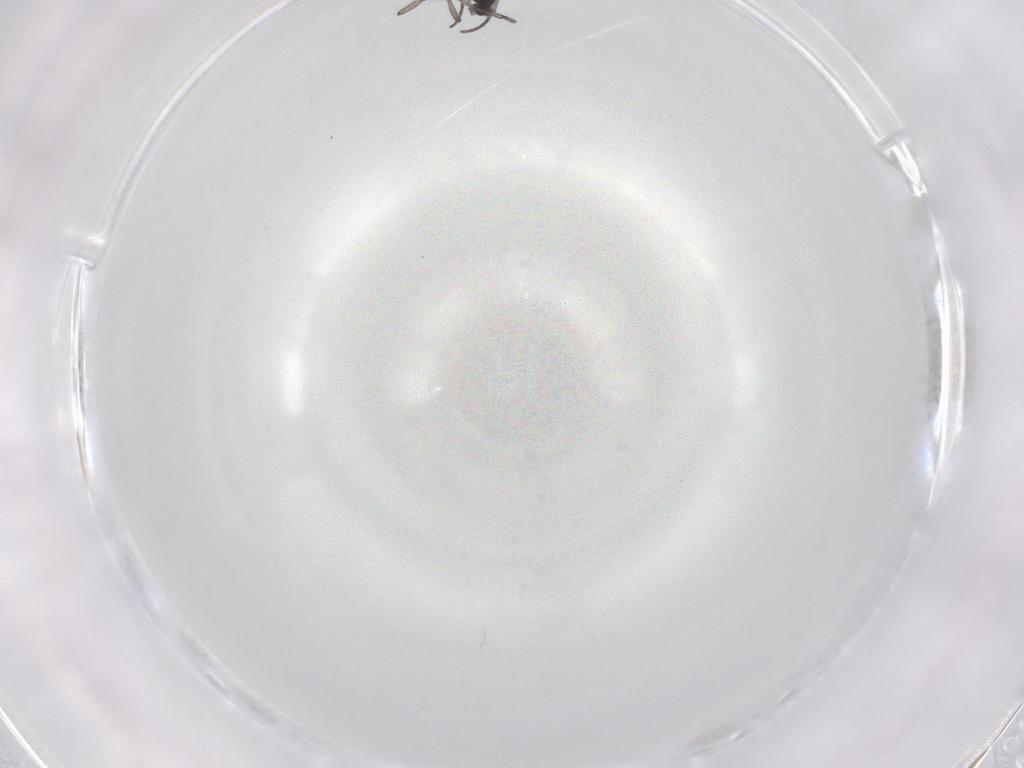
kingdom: Animalia
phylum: Arthropoda
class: Insecta
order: Diptera
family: Sciaridae
